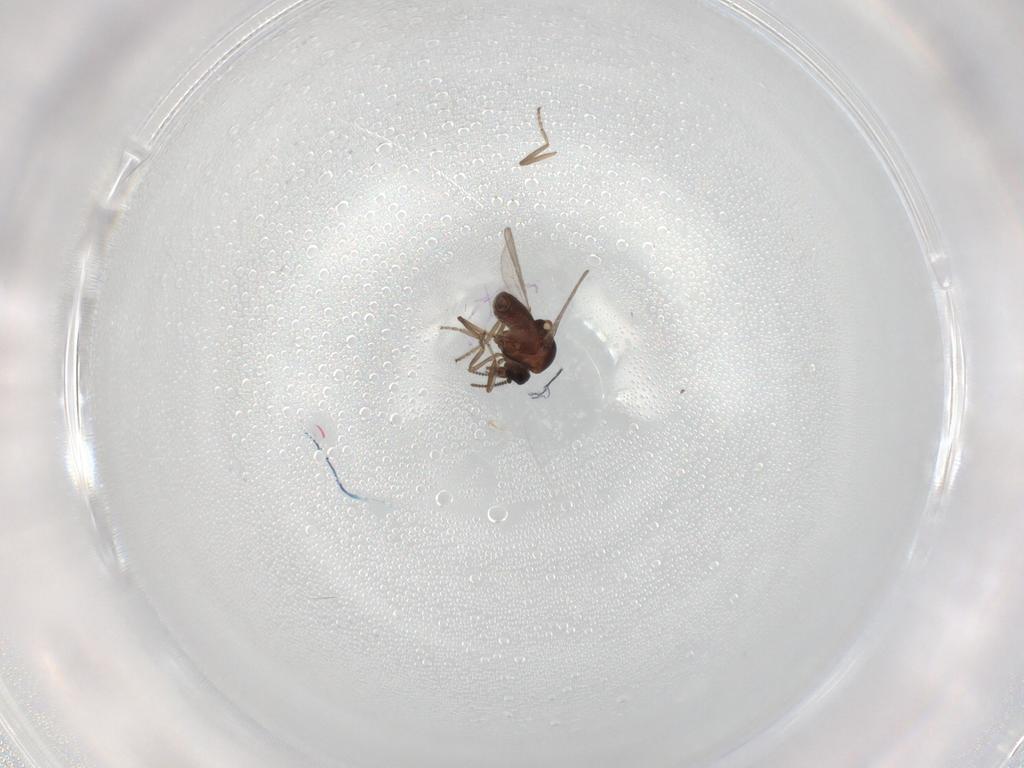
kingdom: Animalia
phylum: Arthropoda
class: Insecta
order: Diptera
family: Ceratopogonidae
